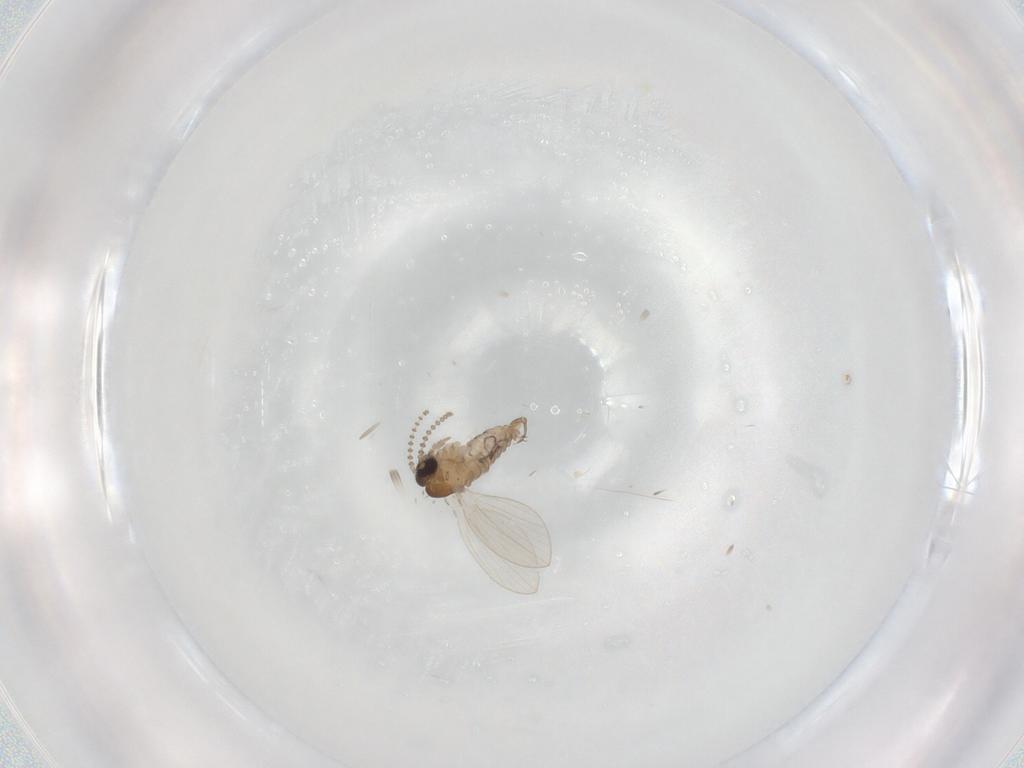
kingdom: Animalia
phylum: Arthropoda
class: Insecta
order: Diptera
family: Psychodidae
